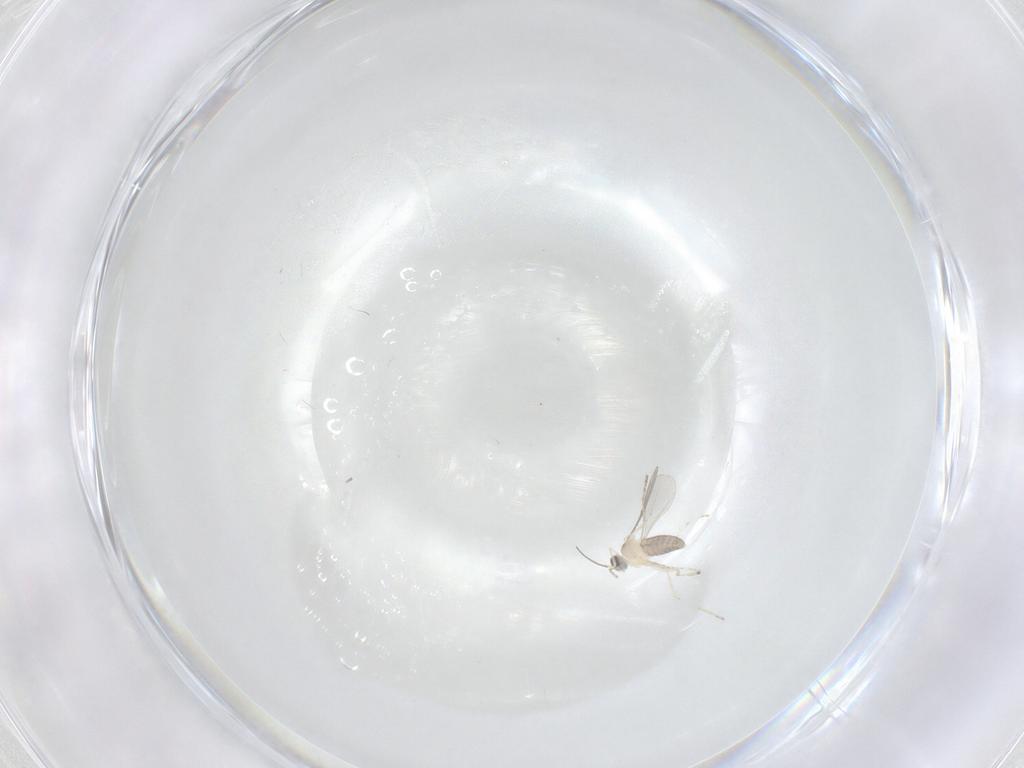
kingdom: Animalia
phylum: Arthropoda
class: Insecta
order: Diptera
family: Cecidomyiidae
